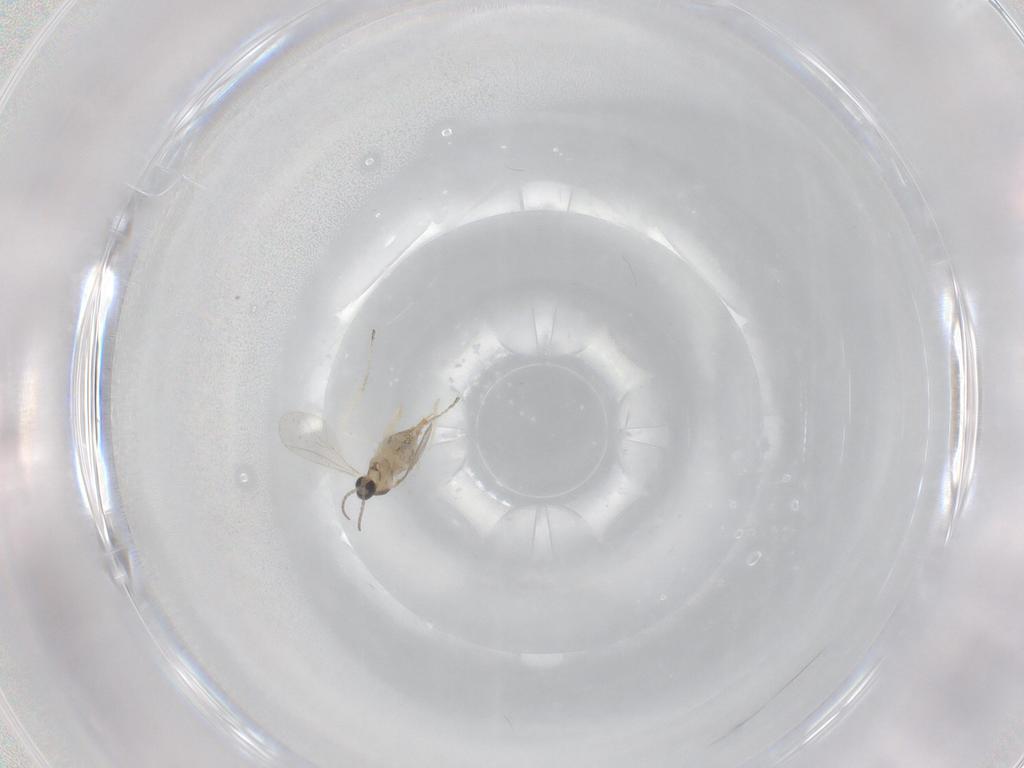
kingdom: Animalia
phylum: Arthropoda
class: Insecta
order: Diptera
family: Cecidomyiidae
